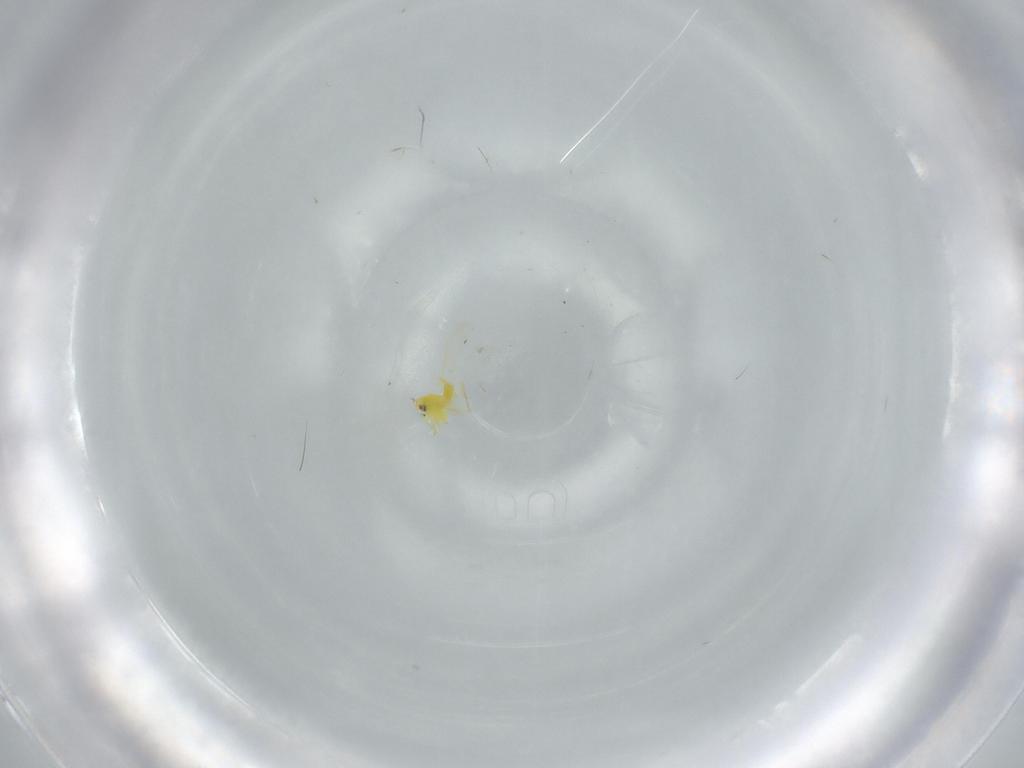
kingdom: Animalia
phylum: Arthropoda
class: Insecta
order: Hemiptera
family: Aleyrodidae
